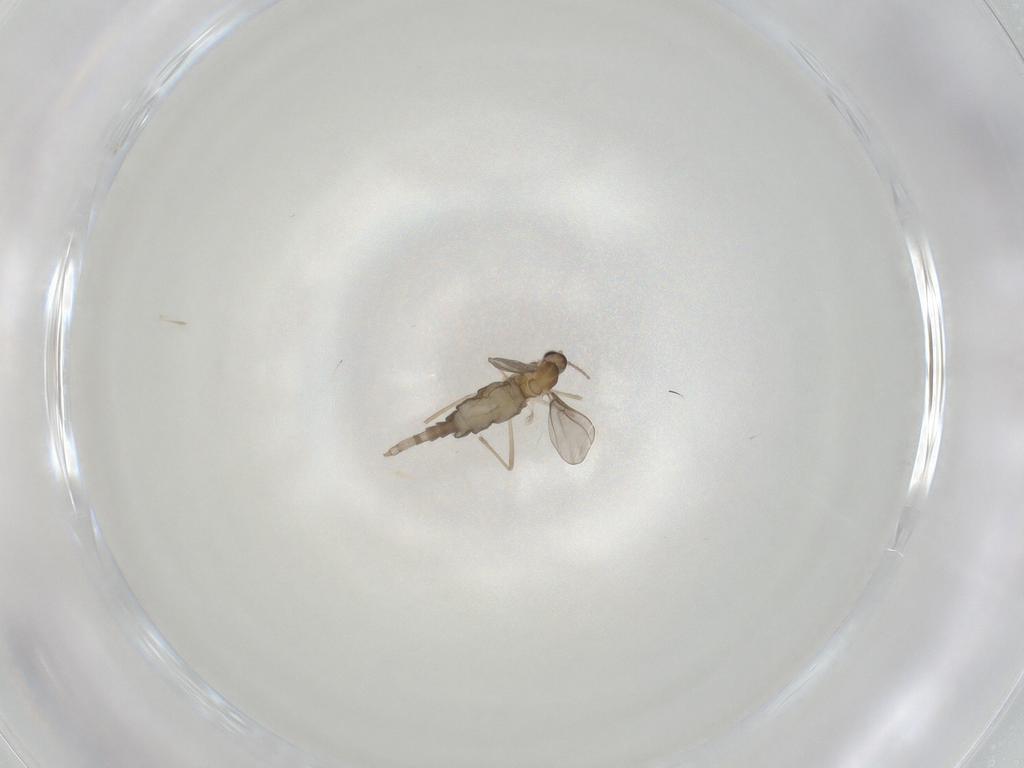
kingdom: Animalia
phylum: Arthropoda
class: Insecta
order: Diptera
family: Cecidomyiidae
